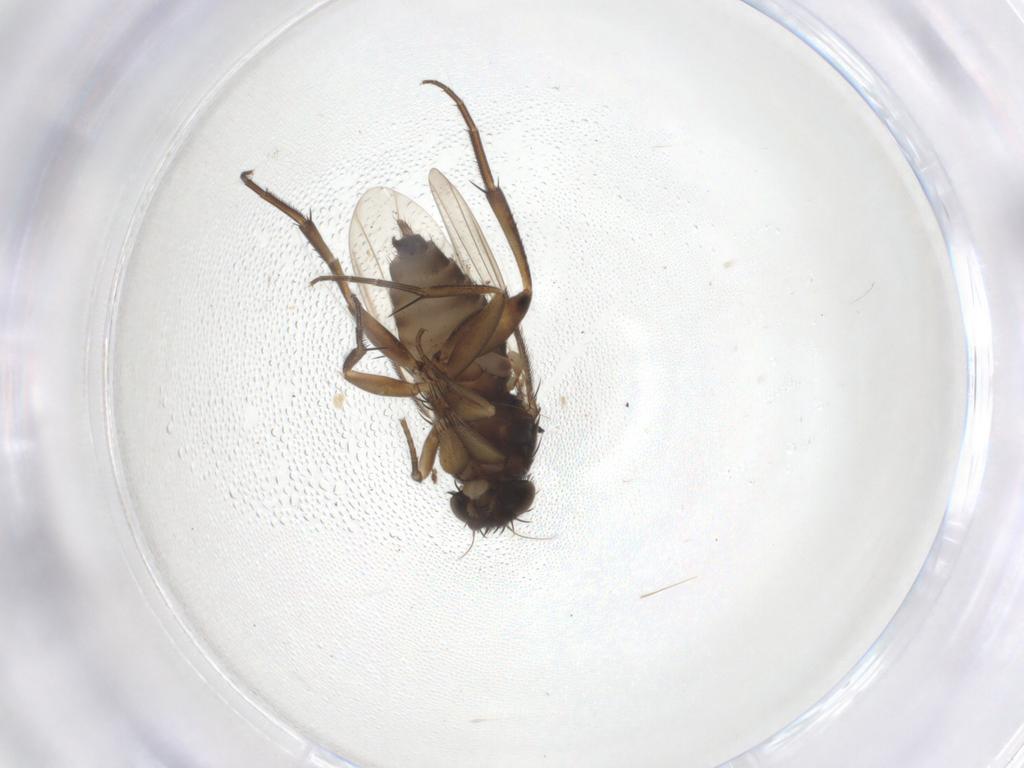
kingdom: Animalia
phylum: Arthropoda
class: Insecta
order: Diptera
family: Phoridae
